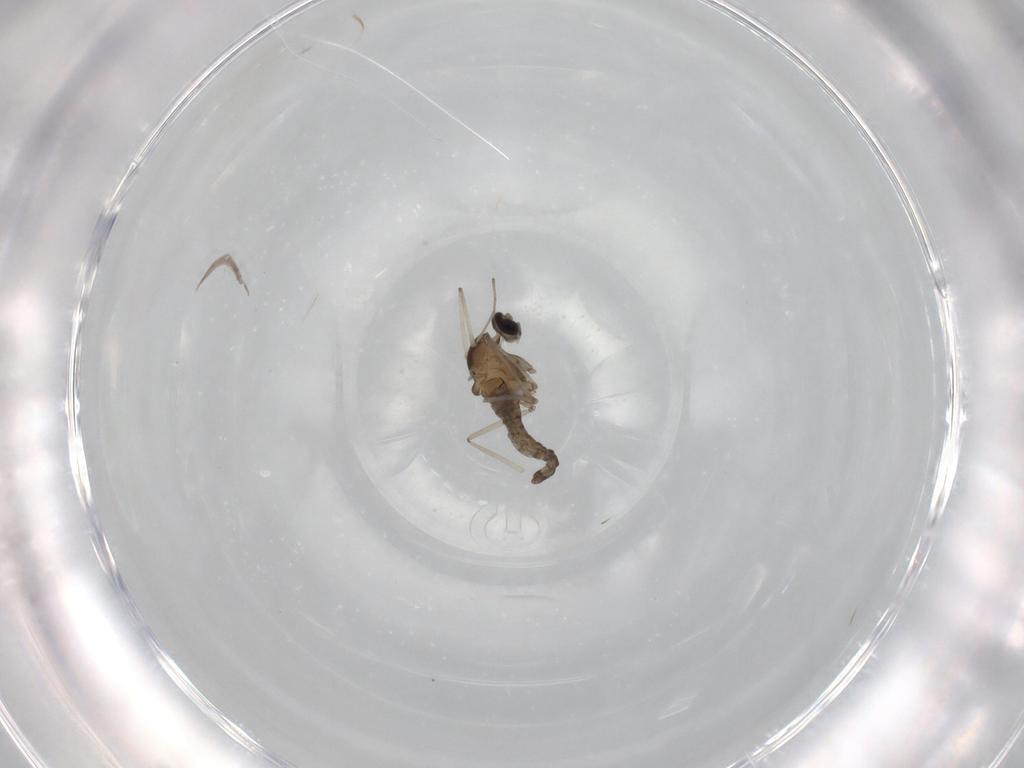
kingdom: Animalia
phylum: Arthropoda
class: Insecta
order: Diptera
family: Cecidomyiidae
